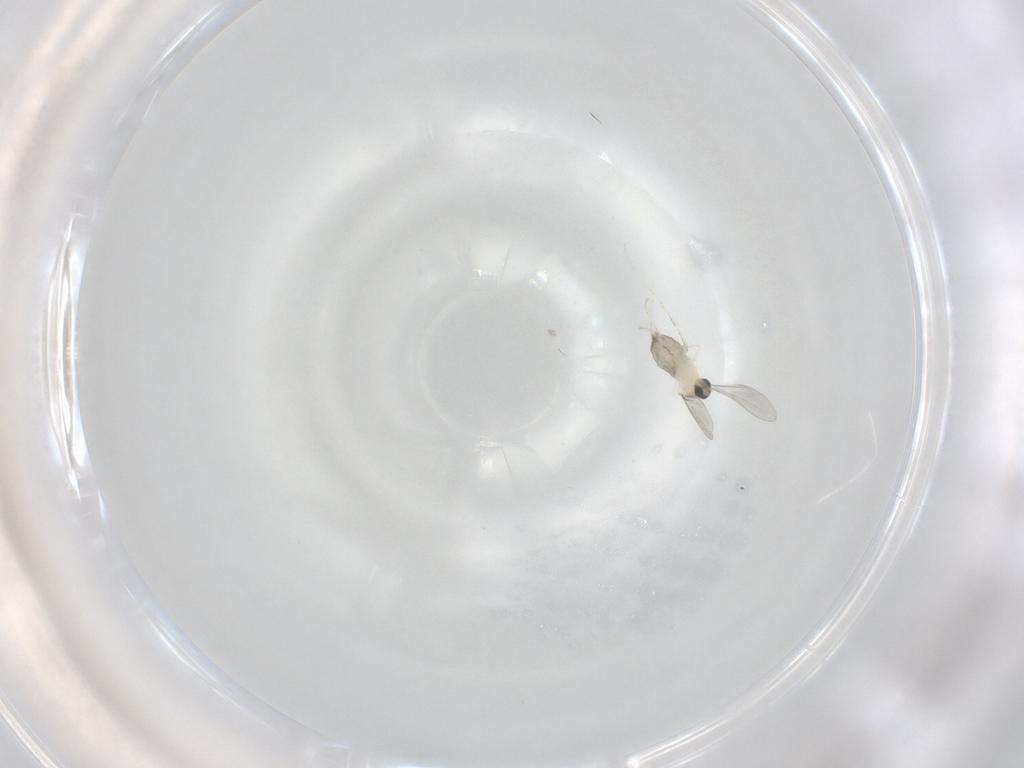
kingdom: Animalia
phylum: Arthropoda
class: Insecta
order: Diptera
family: Cecidomyiidae
